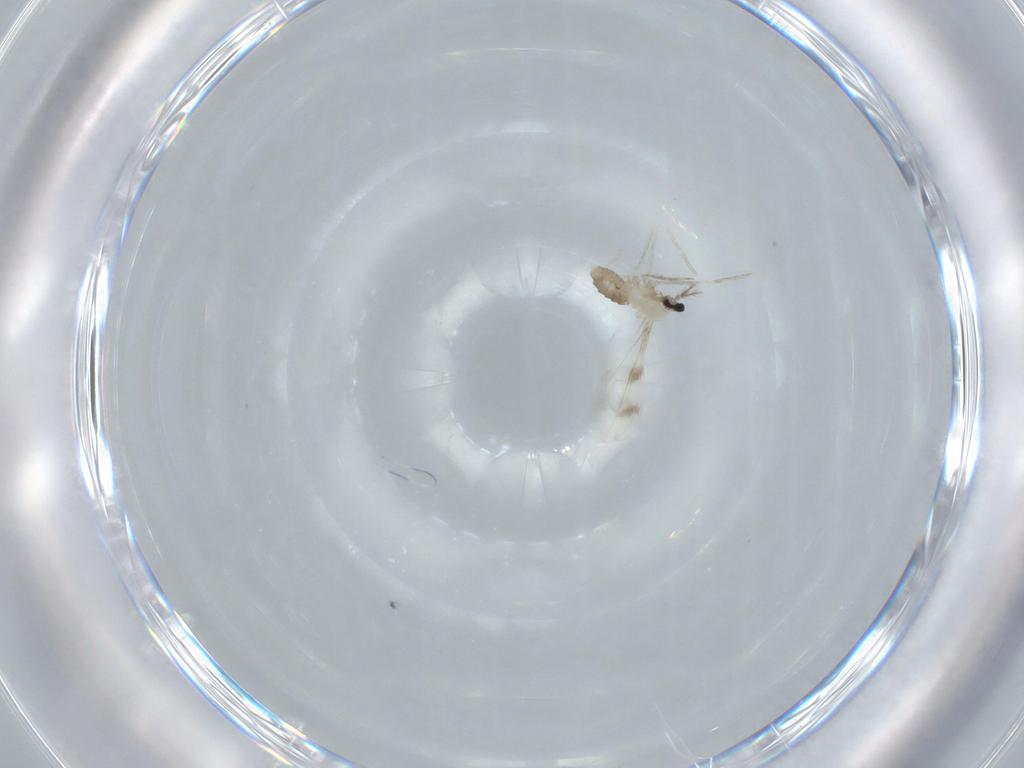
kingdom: Animalia
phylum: Arthropoda
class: Insecta
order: Diptera
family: Cecidomyiidae
